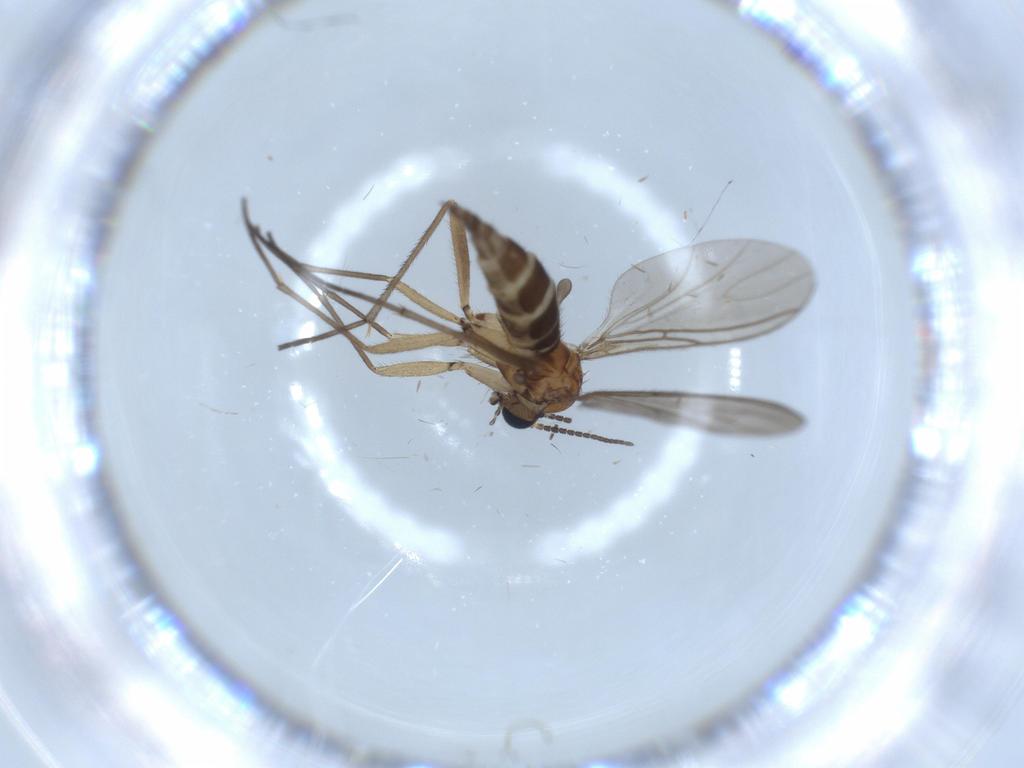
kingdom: Animalia
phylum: Arthropoda
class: Insecta
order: Diptera
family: Sciaridae
